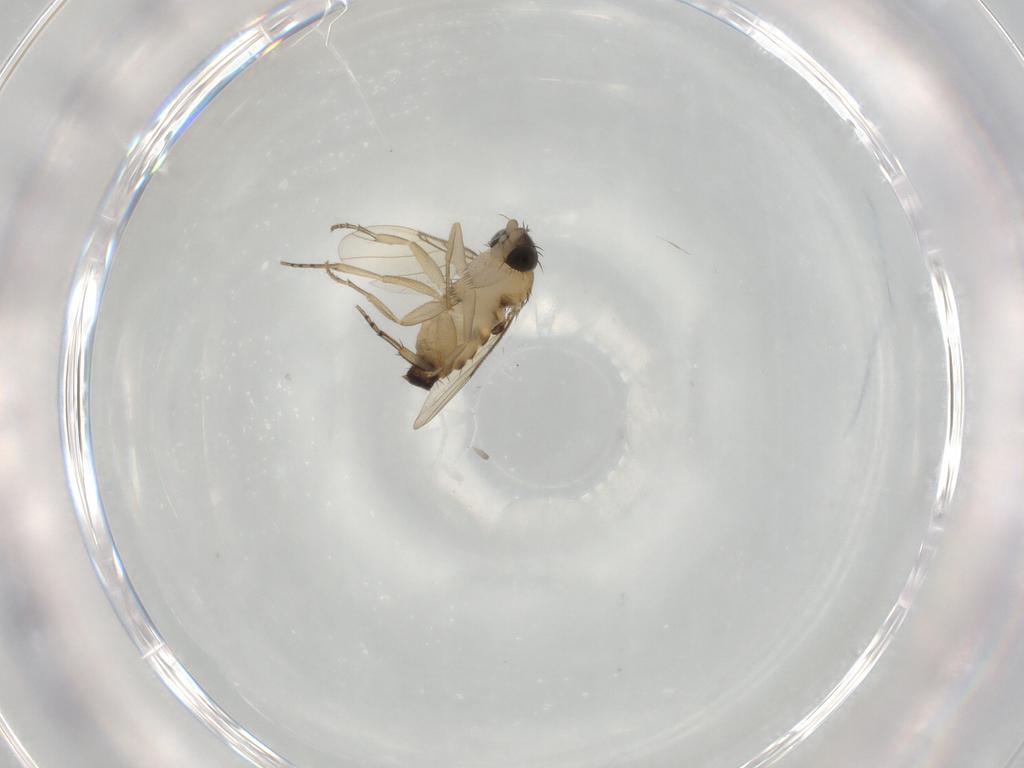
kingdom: Animalia
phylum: Arthropoda
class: Insecta
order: Diptera
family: Phoridae
